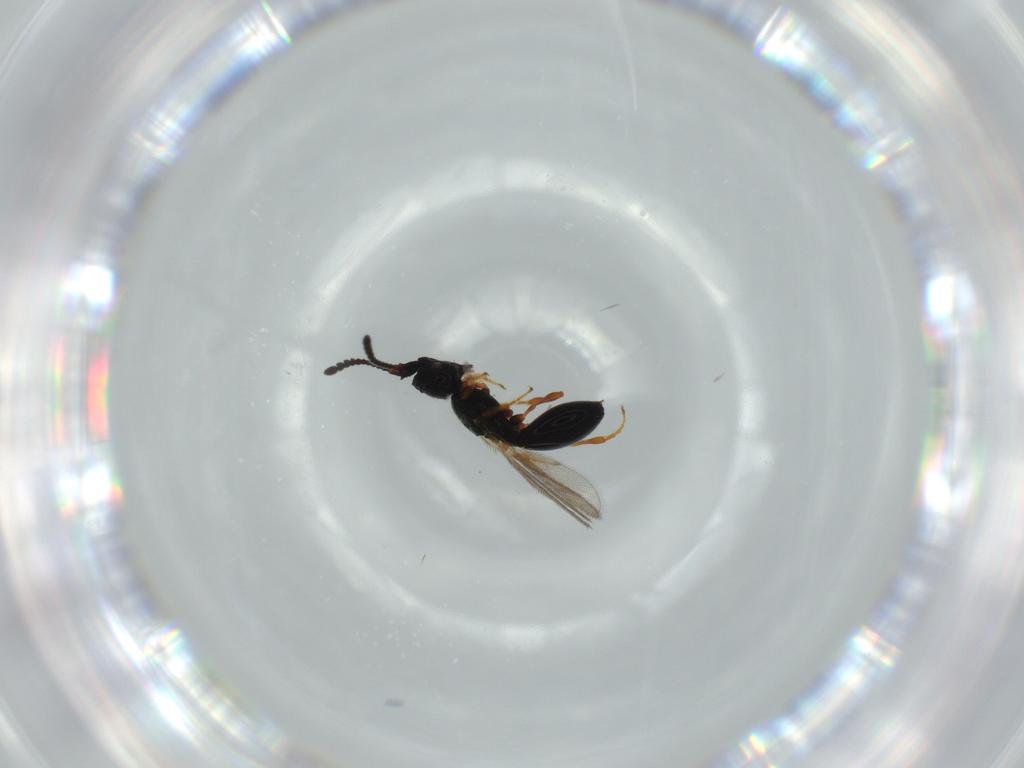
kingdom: Animalia
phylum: Arthropoda
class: Insecta
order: Hymenoptera
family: Diapriidae
